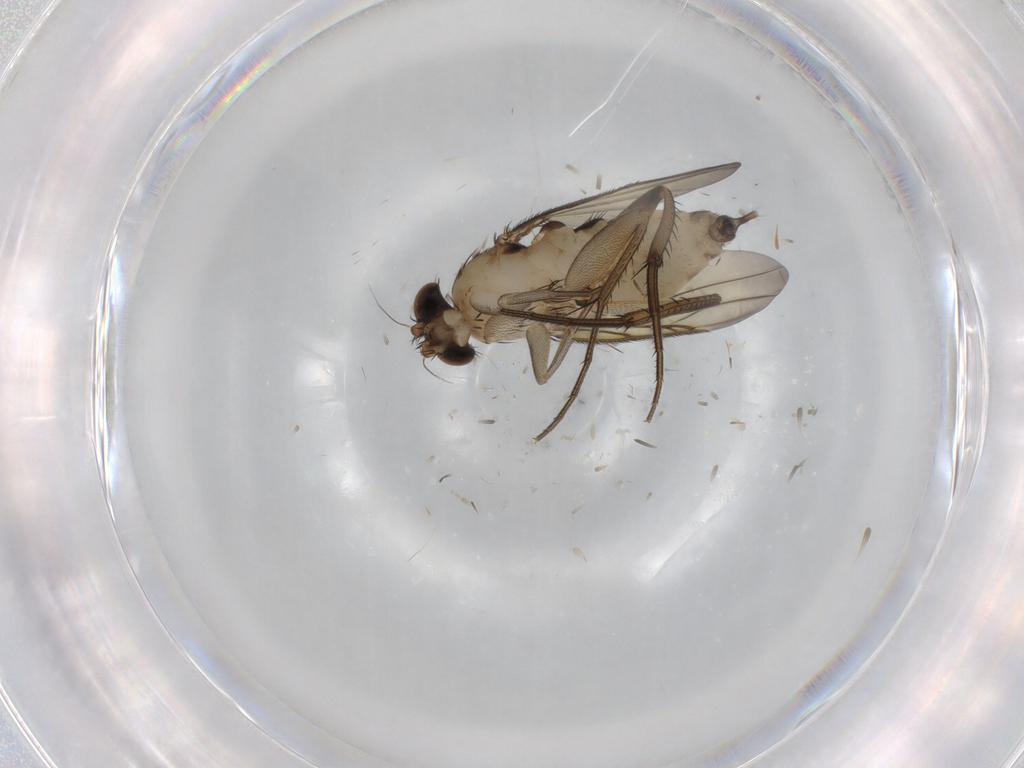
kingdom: Animalia
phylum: Arthropoda
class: Insecta
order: Diptera
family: Phoridae
